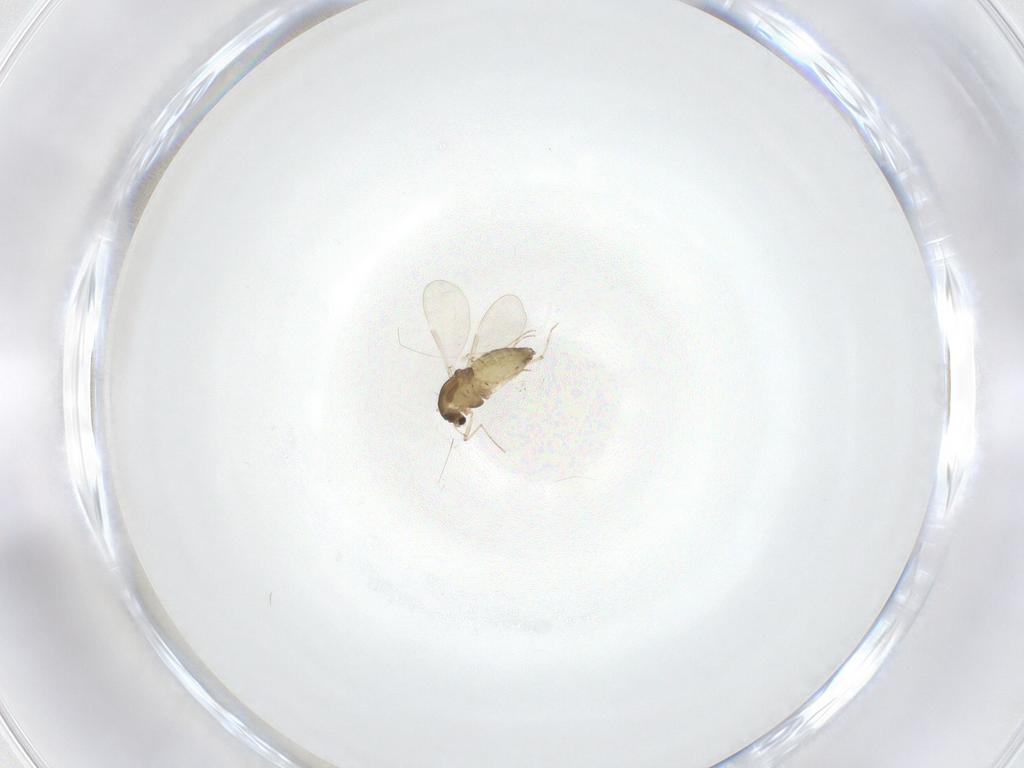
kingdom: Animalia
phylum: Arthropoda
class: Insecta
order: Diptera
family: Chironomidae
